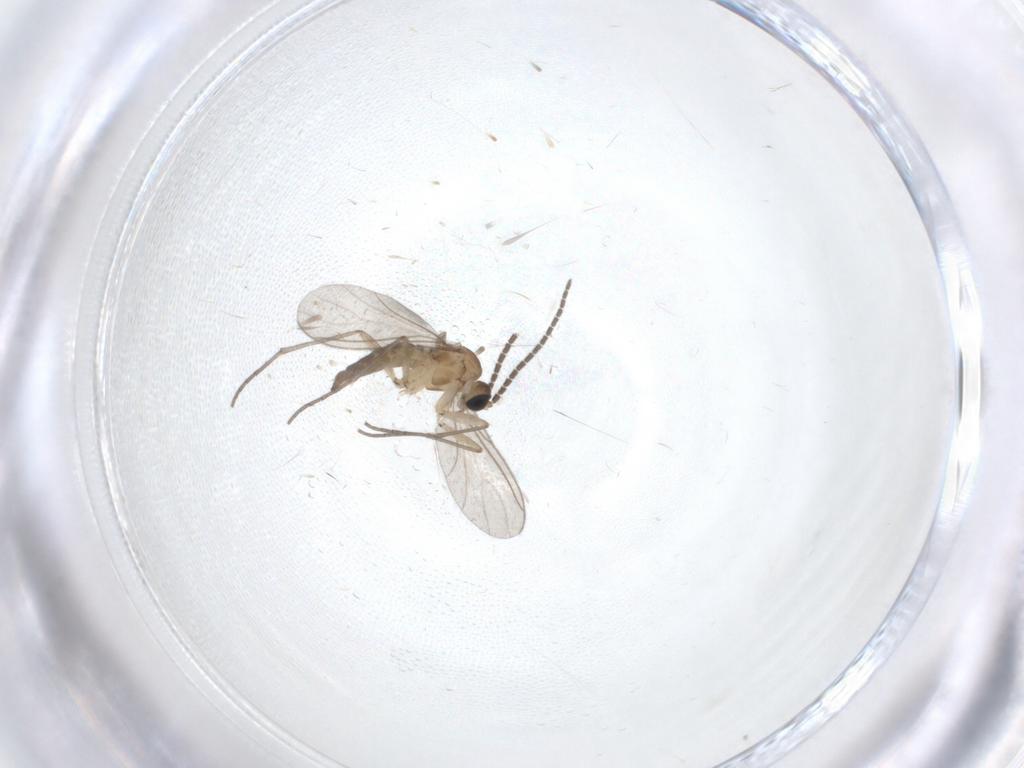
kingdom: Animalia
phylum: Arthropoda
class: Insecta
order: Diptera
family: Sciaridae
